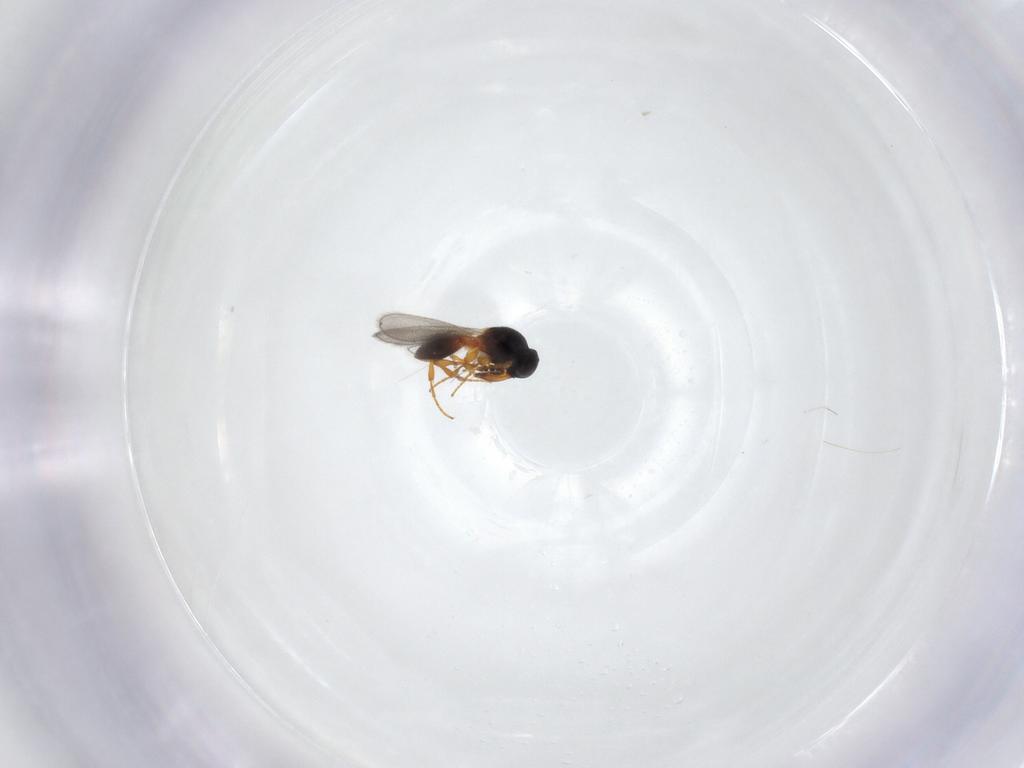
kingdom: Animalia
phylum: Arthropoda
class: Insecta
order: Hymenoptera
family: Platygastridae
